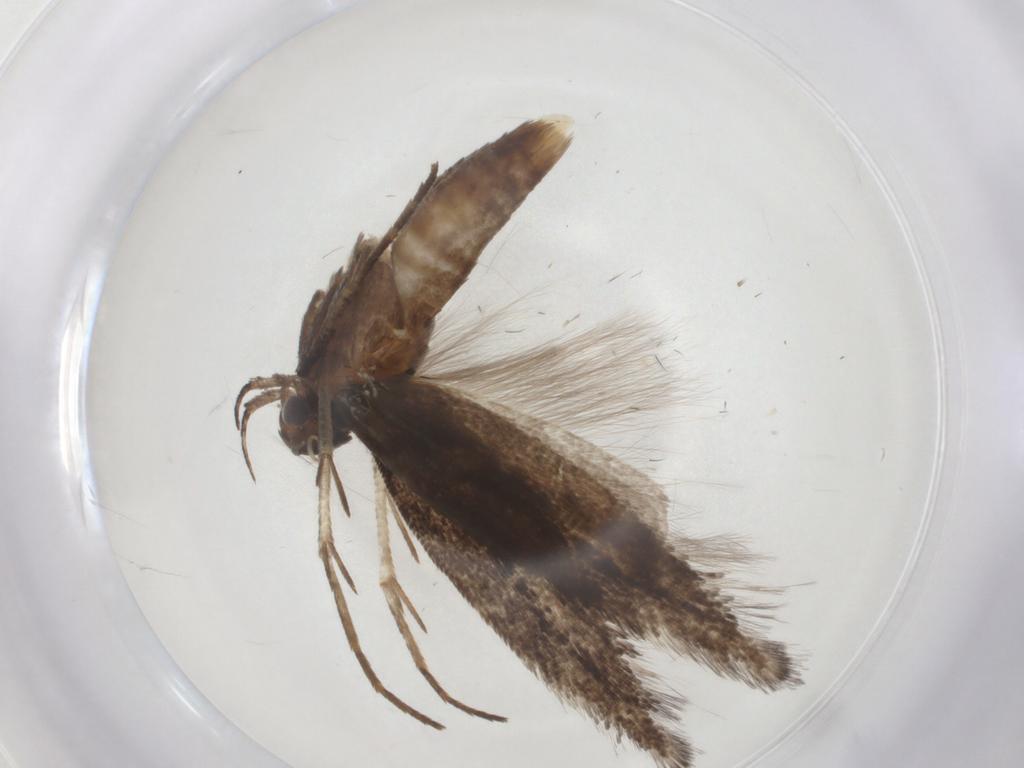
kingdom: Animalia
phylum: Arthropoda
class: Insecta
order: Lepidoptera
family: Gelechiidae
